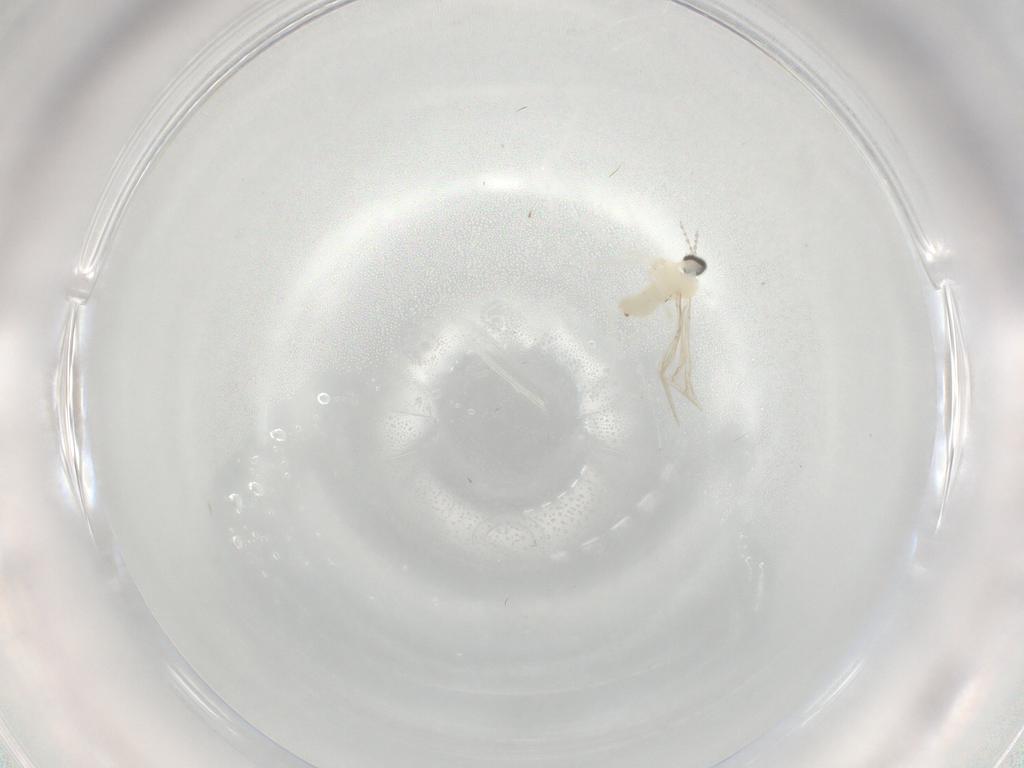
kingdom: Animalia
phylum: Arthropoda
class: Insecta
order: Diptera
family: Cecidomyiidae
